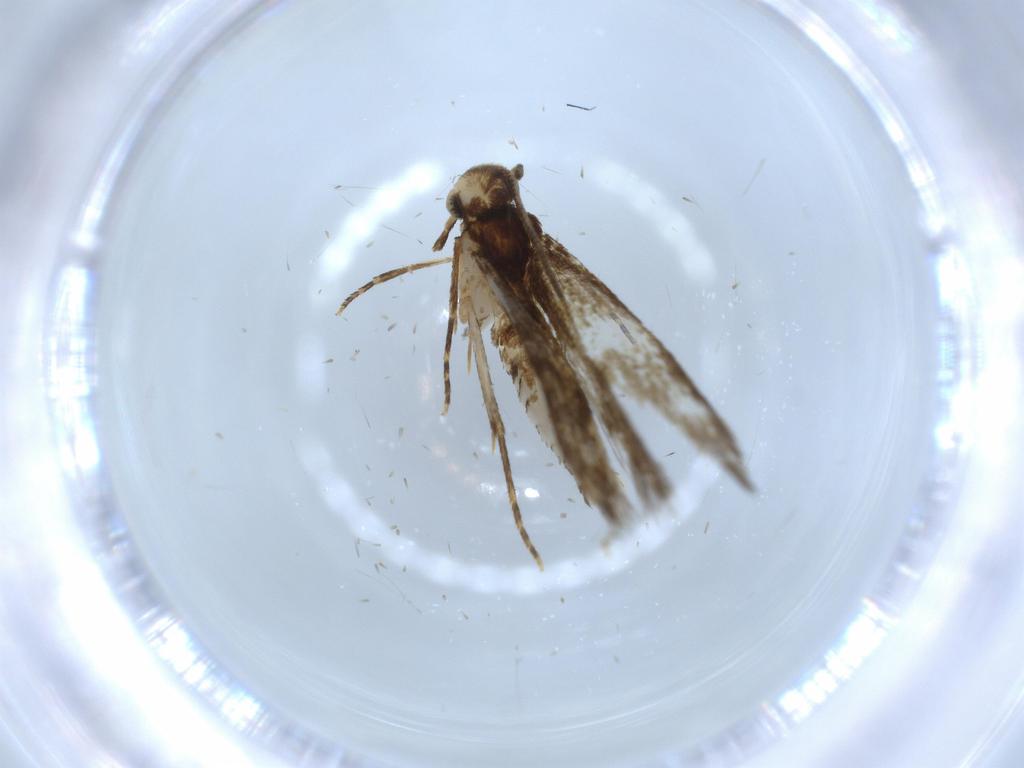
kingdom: Animalia
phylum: Arthropoda
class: Insecta
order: Lepidoptera
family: Tineidae
